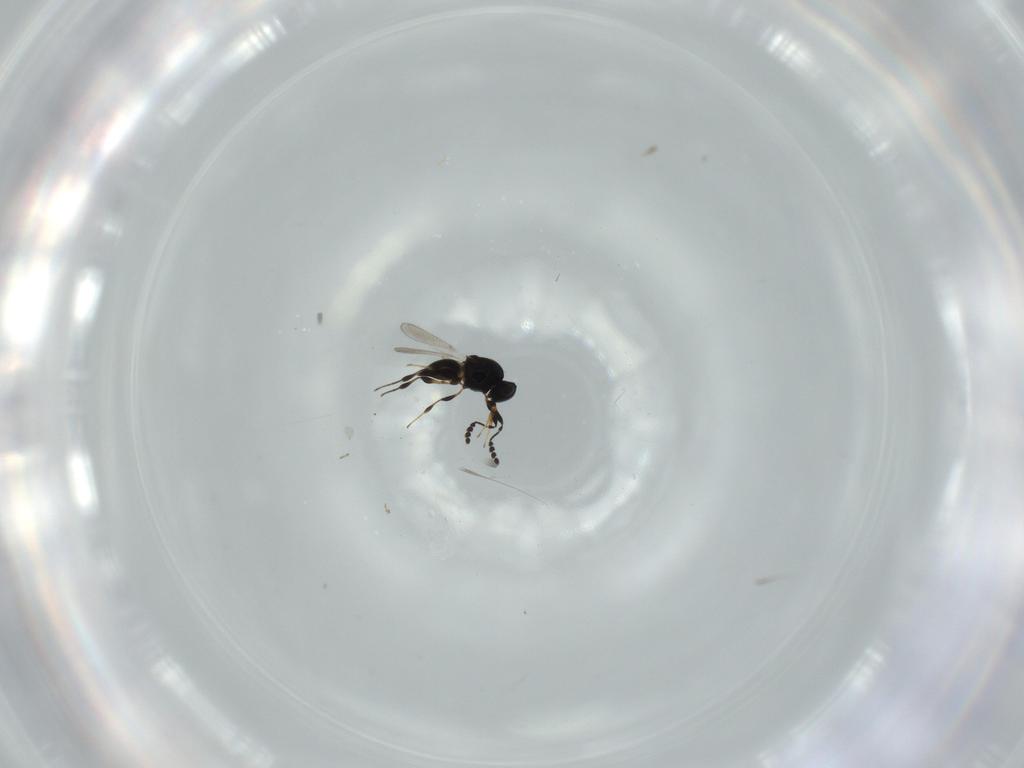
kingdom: Animalia
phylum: Arthropoda
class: Insecta
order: Hymenoptera
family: Platygastridae
